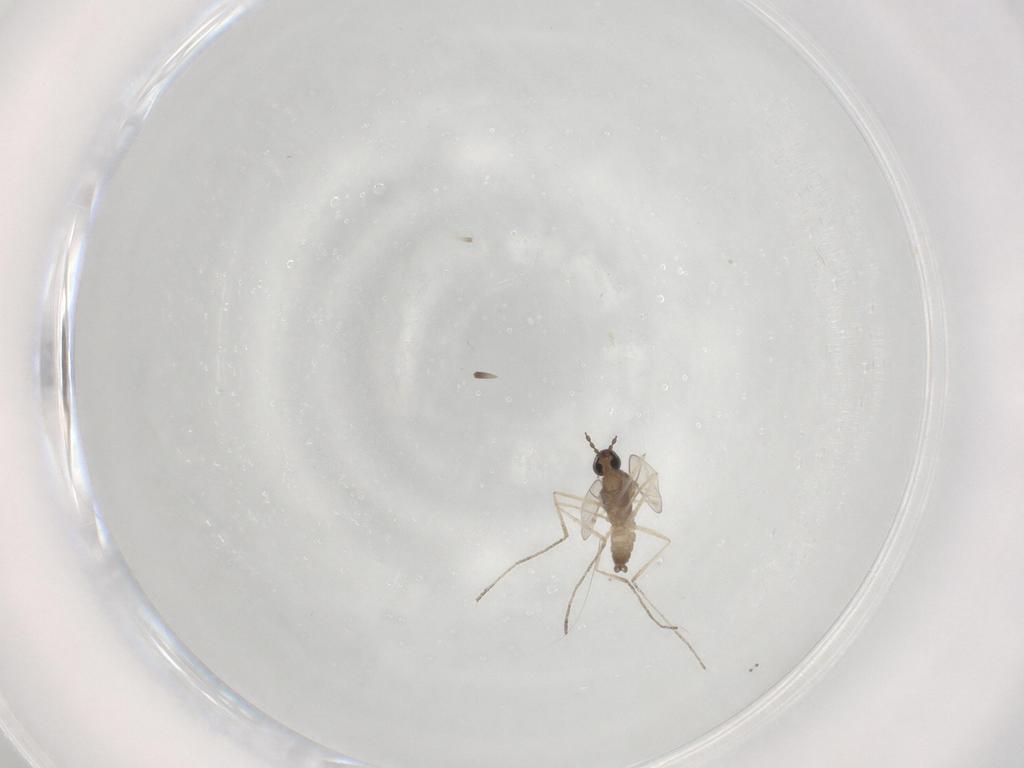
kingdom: Animalia
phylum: Arthropoda
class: Insecta
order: Diptera
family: Cecidomyiidae
